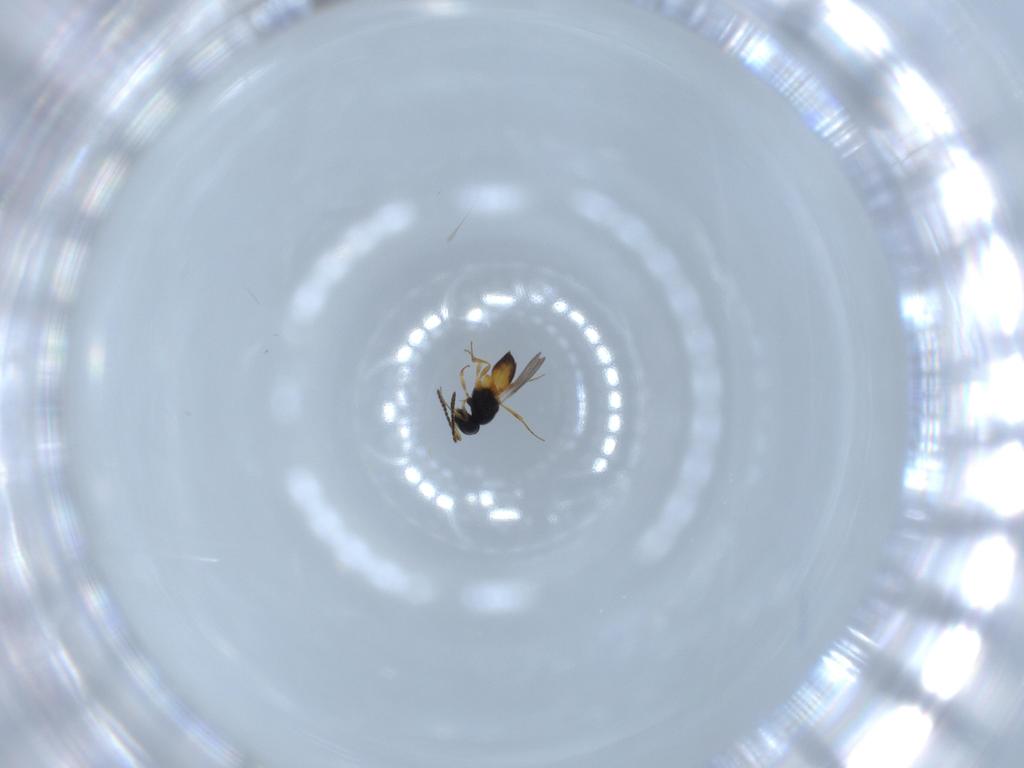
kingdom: Animalia
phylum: Arthropoda
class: Insecta
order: Hymenoptera
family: Scelionidae
